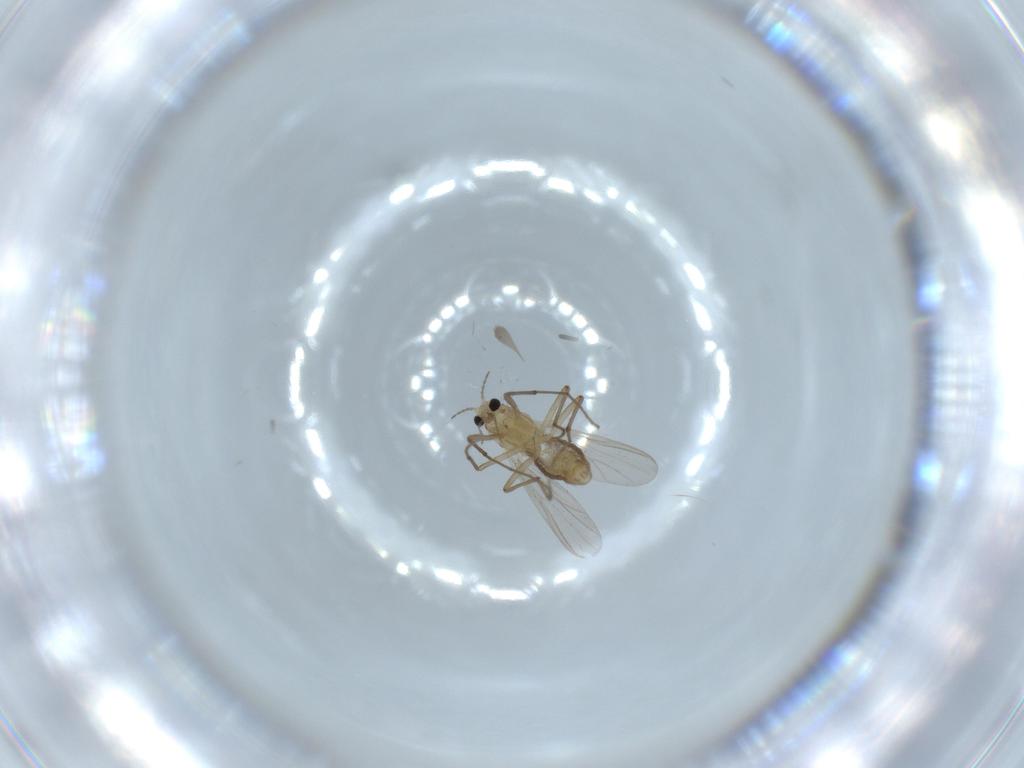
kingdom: Animalia
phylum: Arthropoda
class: Insecta
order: Diptera
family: Chironomidae
